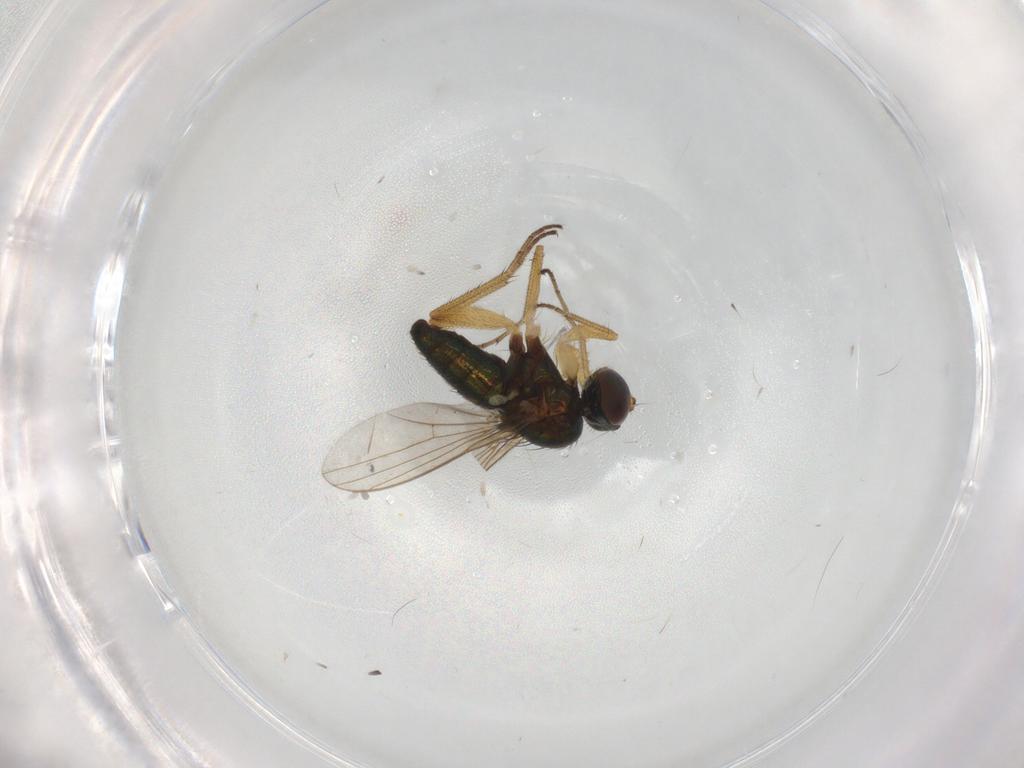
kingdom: Animalia
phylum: Arthropoda
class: Insecta
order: Diptera
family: Dolichopodidae
